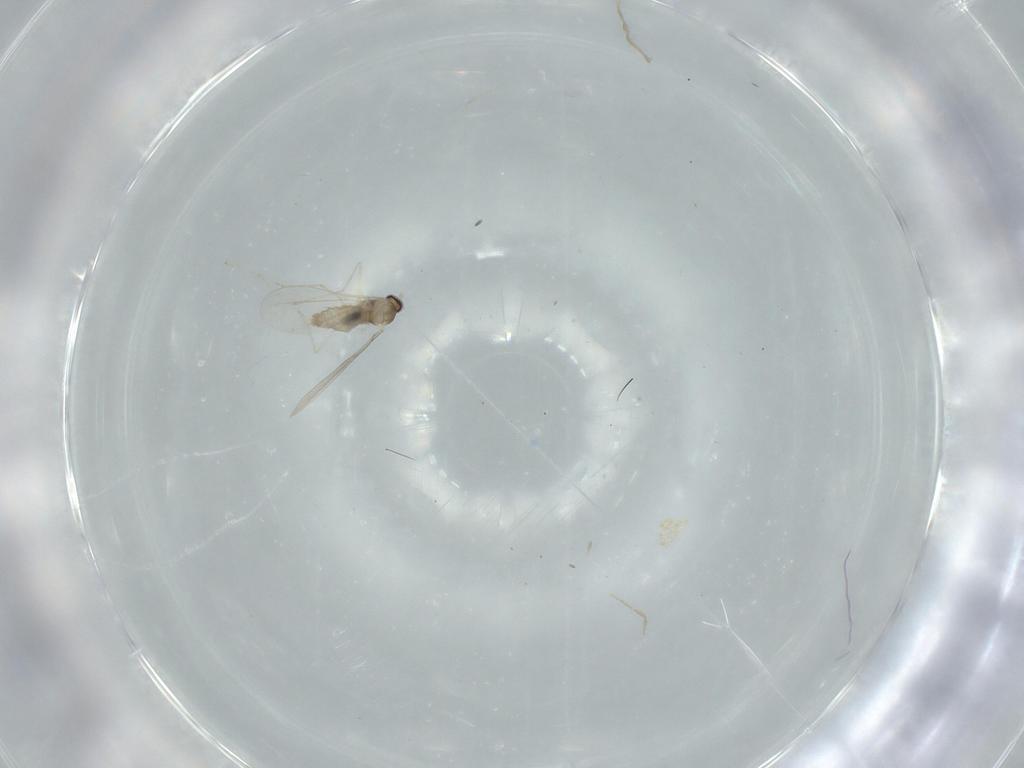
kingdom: Animalia
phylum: Arthropoda
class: Insecta
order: Diptera
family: Cecidomyiidae
